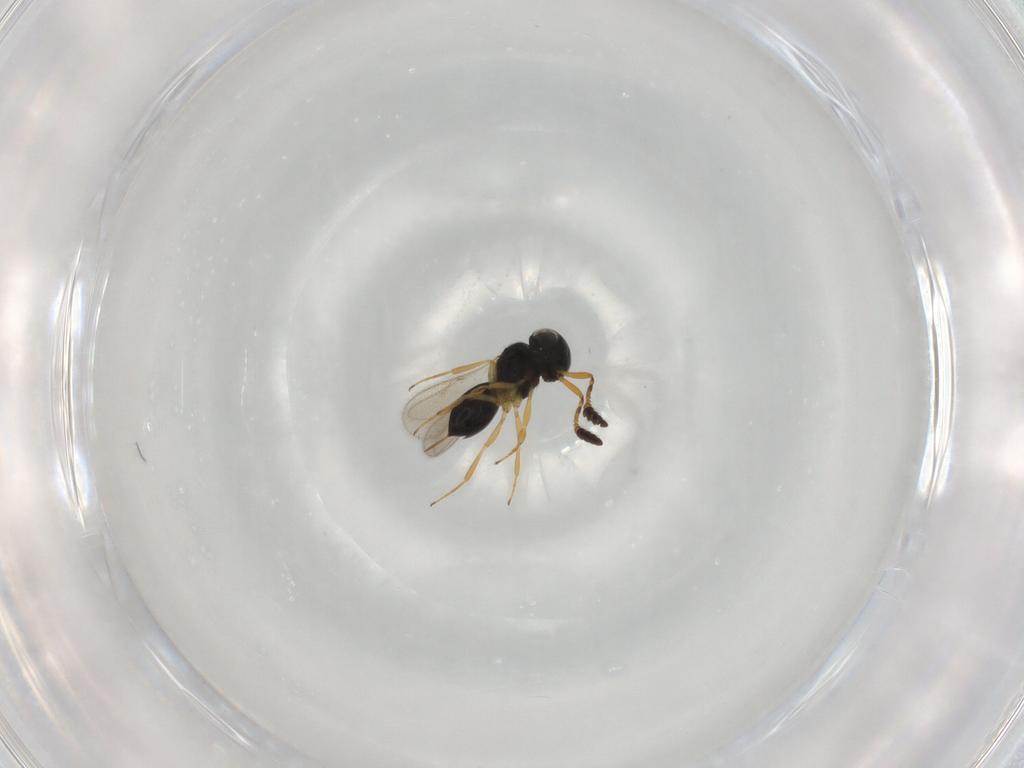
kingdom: Animalia
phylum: Arthropoda
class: Insecta
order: Hymenoptera
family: Scelionidae
